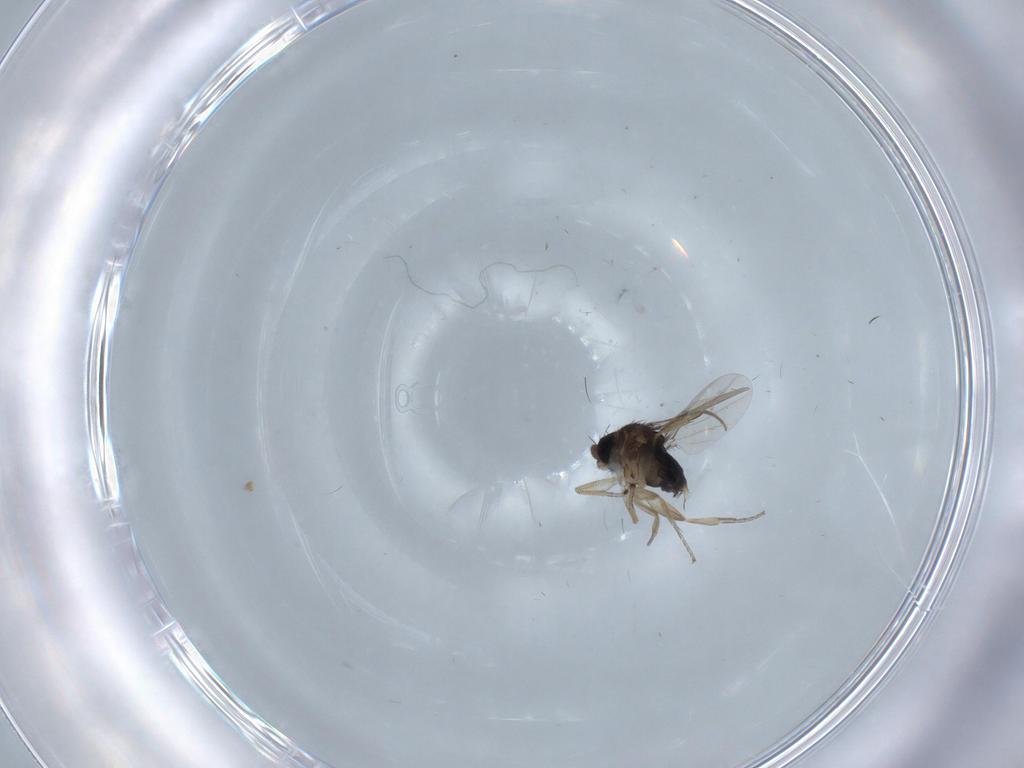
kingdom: Animalia
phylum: Arthropoda
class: Insecta
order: Diptera
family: Phoridae
